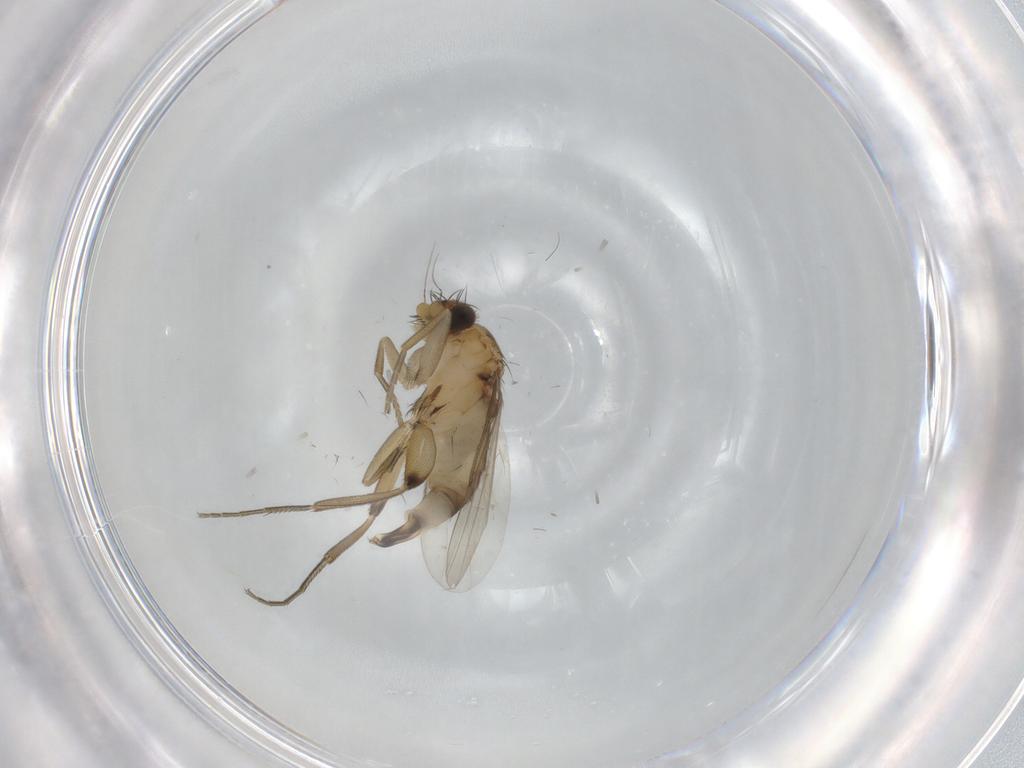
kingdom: Animalia
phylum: Arthropoda
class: Insecta
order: Diptera
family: Phoridae
